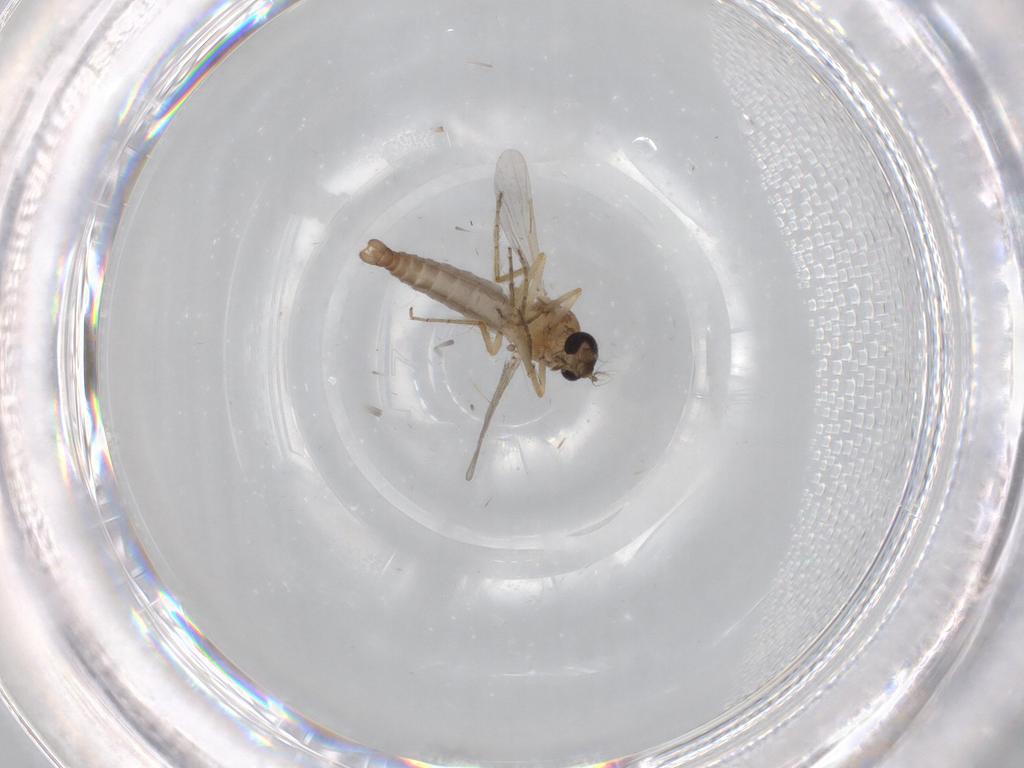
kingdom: Animalia
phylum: Arthropoda
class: Insecta
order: Diptera
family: Ceratopogonidae
